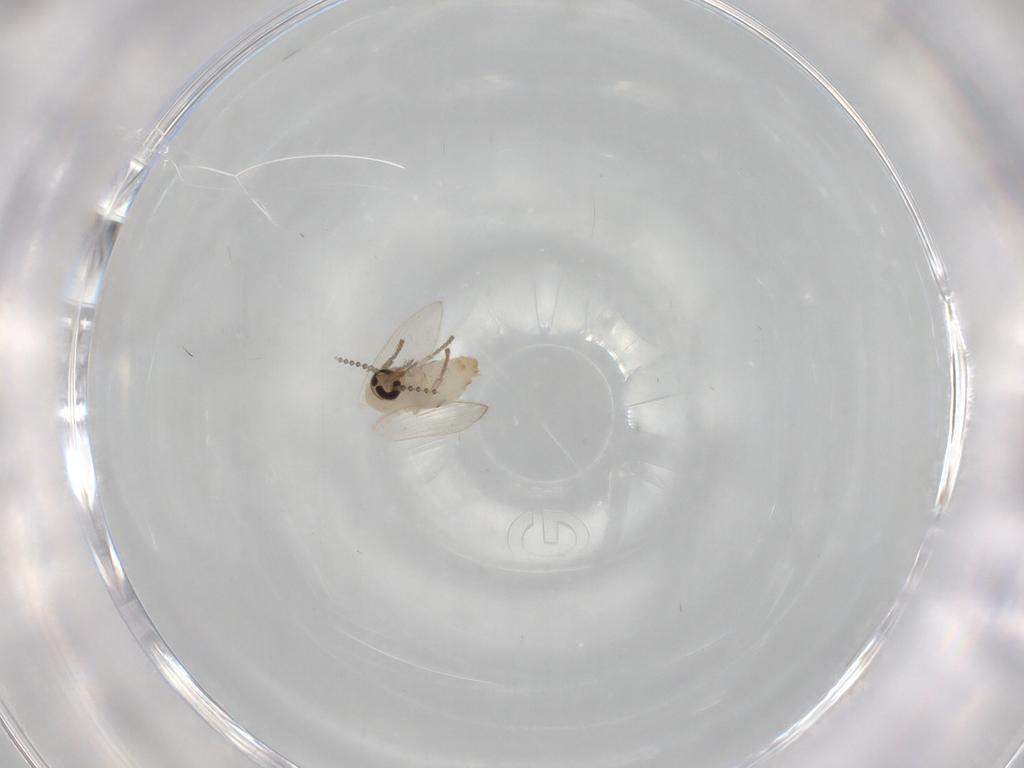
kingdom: Animalia
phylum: Arthropoda
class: Insecta
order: Diptera
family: Psychodidae
